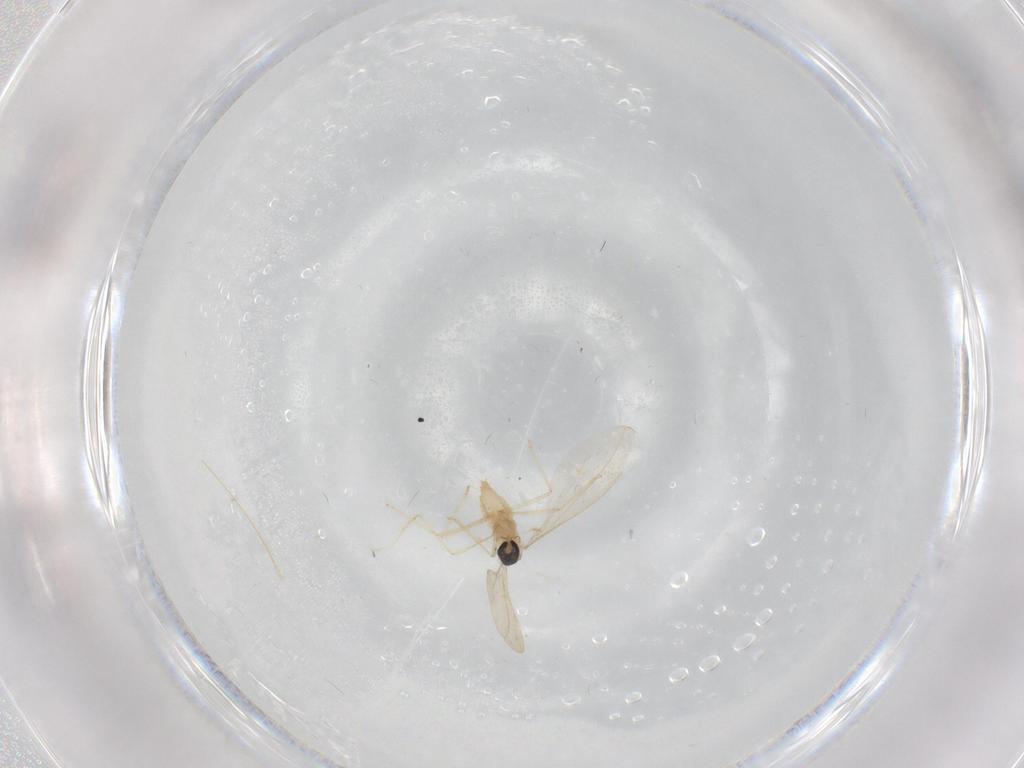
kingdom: Animalia
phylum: Arthropoda
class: Insecta
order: Diptera
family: Cecidomyiidae
